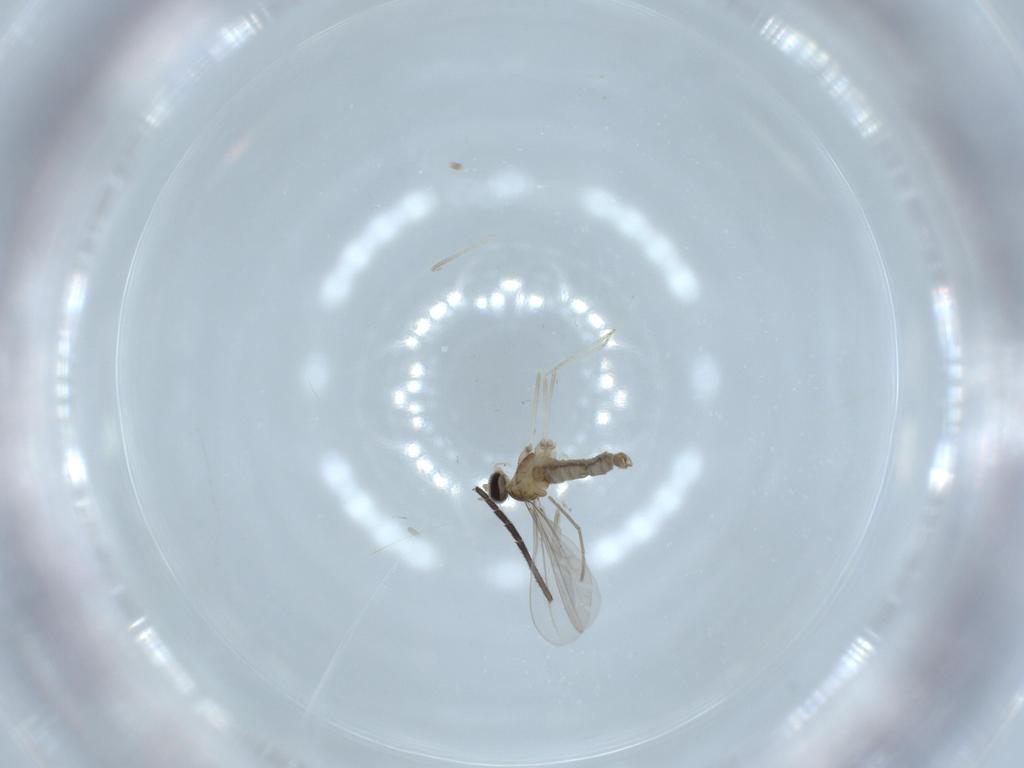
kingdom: Animalia
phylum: Arthropoda
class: Insecta
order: Diptera
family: Cecidomyiidae
